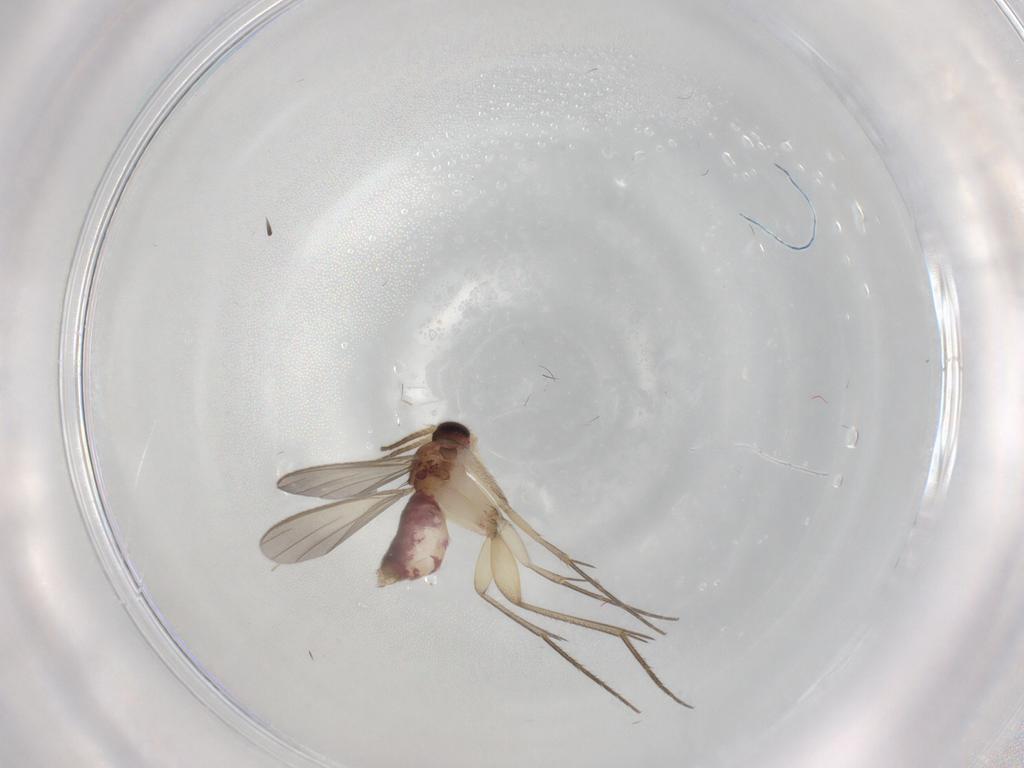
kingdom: Animalia
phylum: Arthropoda
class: Insecta
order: Diptera
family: Mycetophilidae
